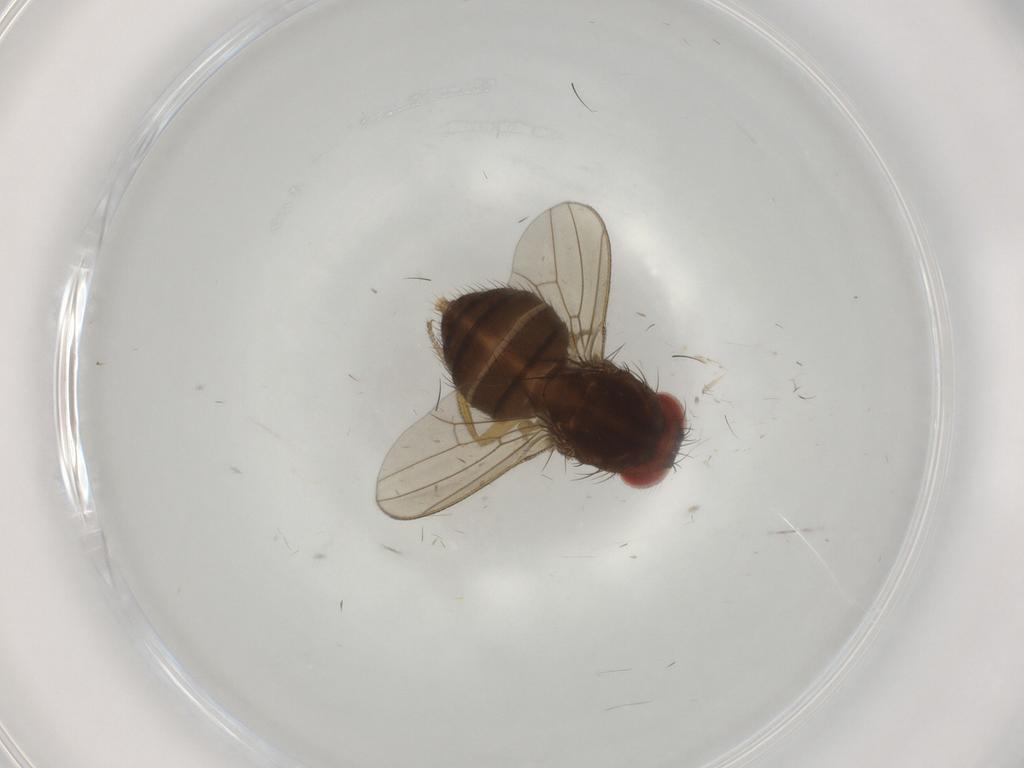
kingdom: Animalia
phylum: Arthropoda
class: Insecta
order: Diptera
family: Drosophilidae
